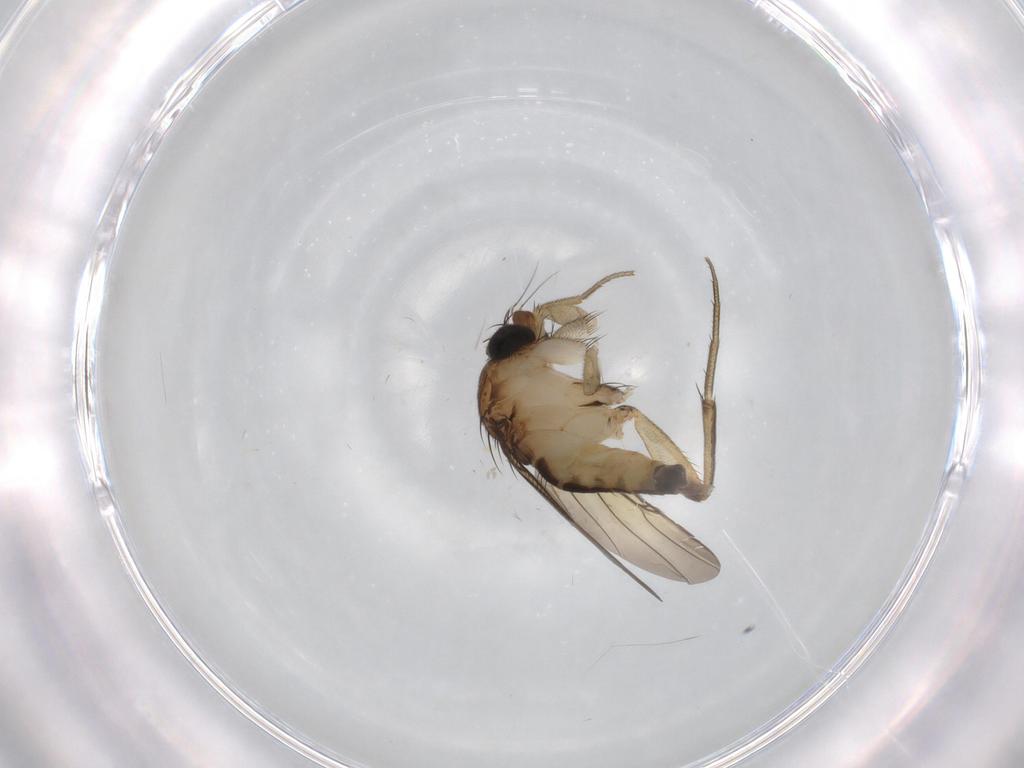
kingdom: Animalia
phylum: Arthropoda
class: Insecta
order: Diptera
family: Phoridae
